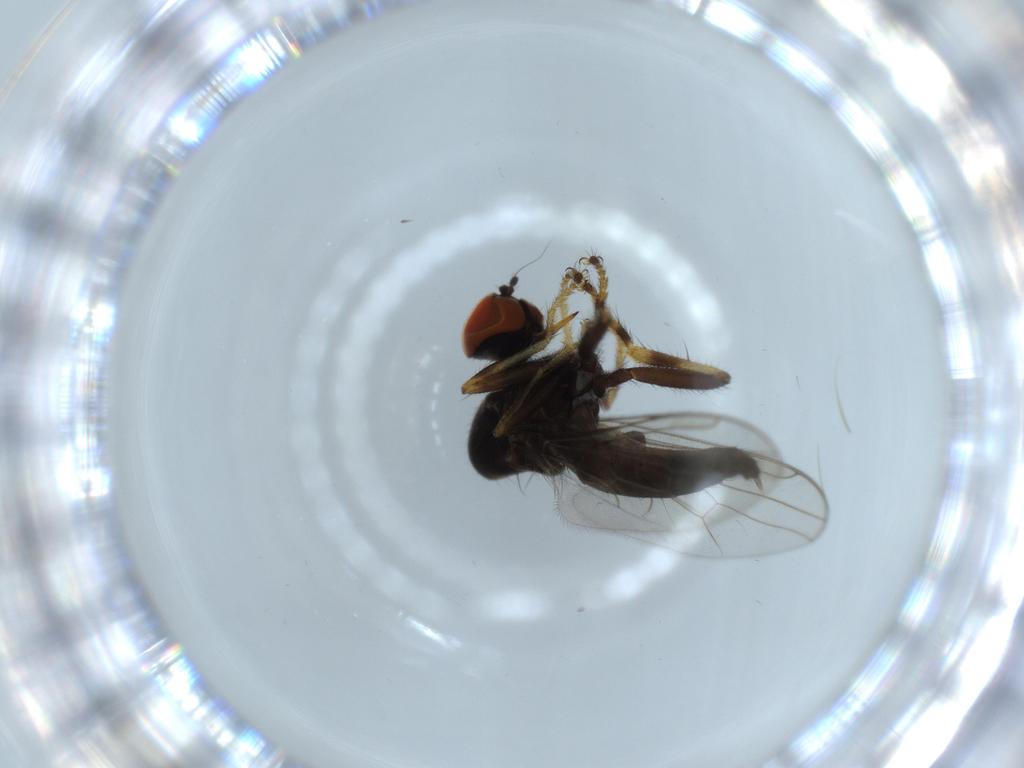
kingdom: Animalia
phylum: Arthropoda
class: Insecta
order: Diptera
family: Hybotidae
